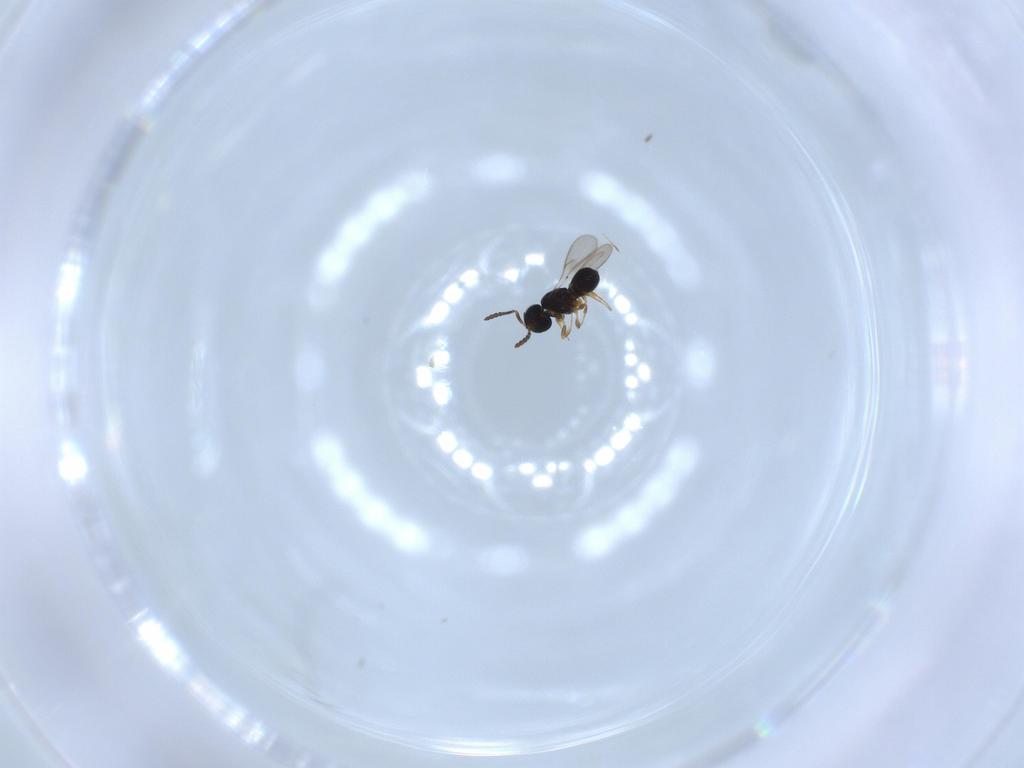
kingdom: Animalia
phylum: Arthropoda
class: Insecta
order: Hymenoptera
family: Scelionidae
